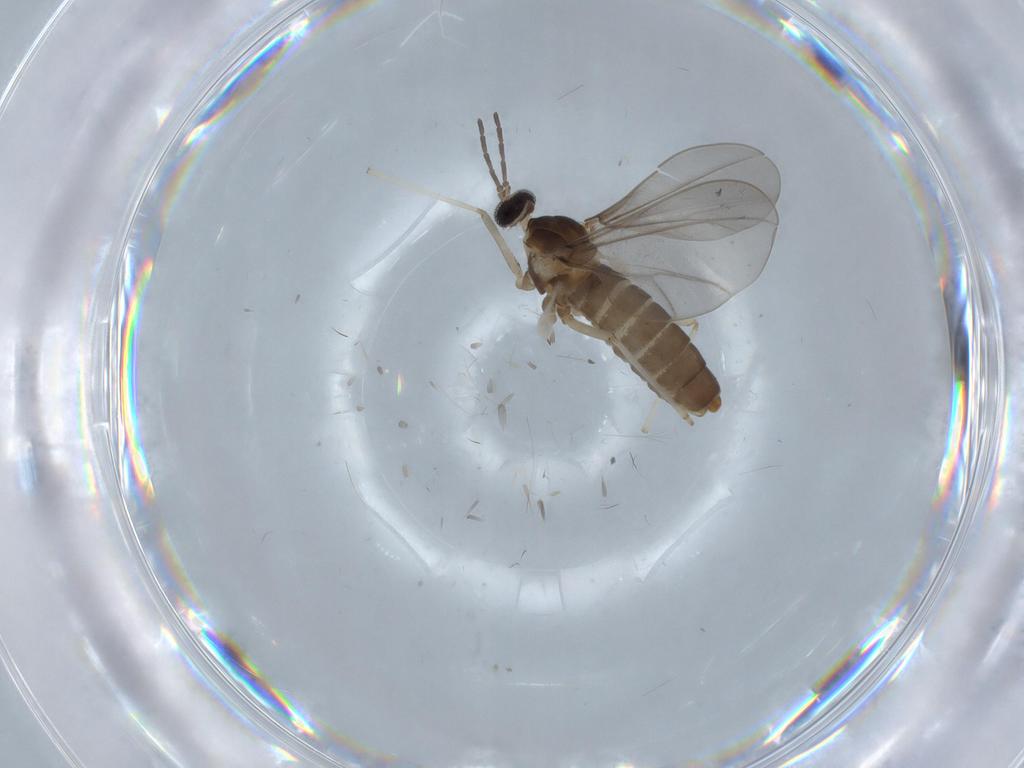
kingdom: Animalia
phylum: Arthropoda
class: Insecta
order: Diptera
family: Chironomidae
